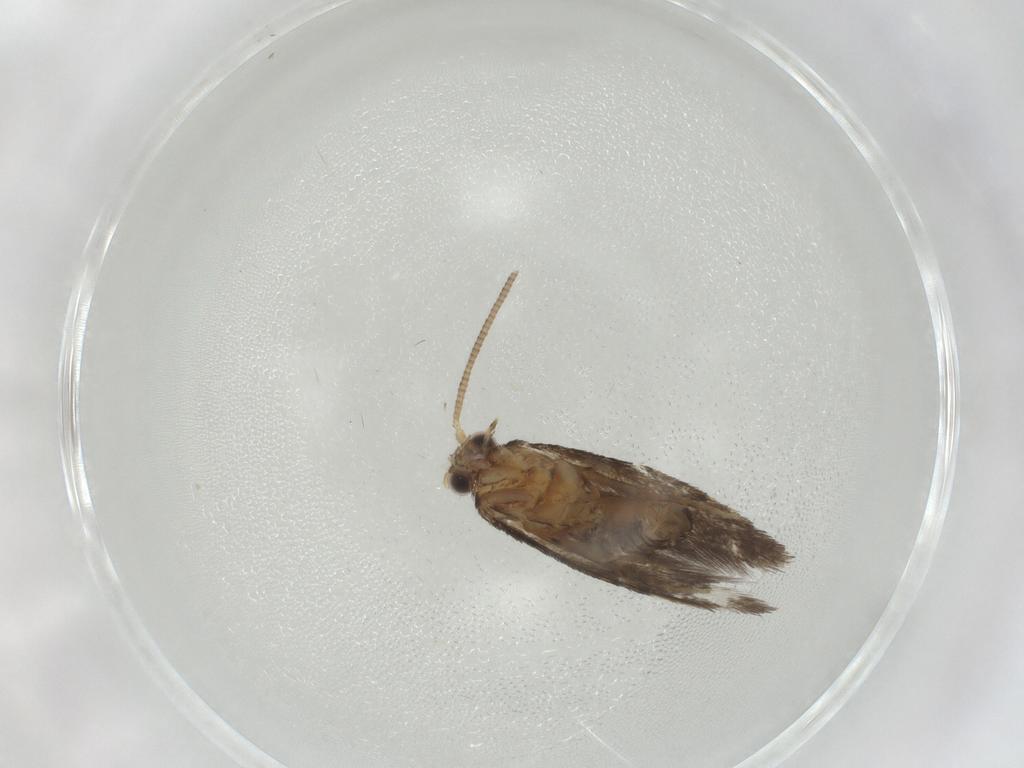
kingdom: Animalia
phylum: Arthropoda
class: Insecta
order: Lepidoptera
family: Tineidae
